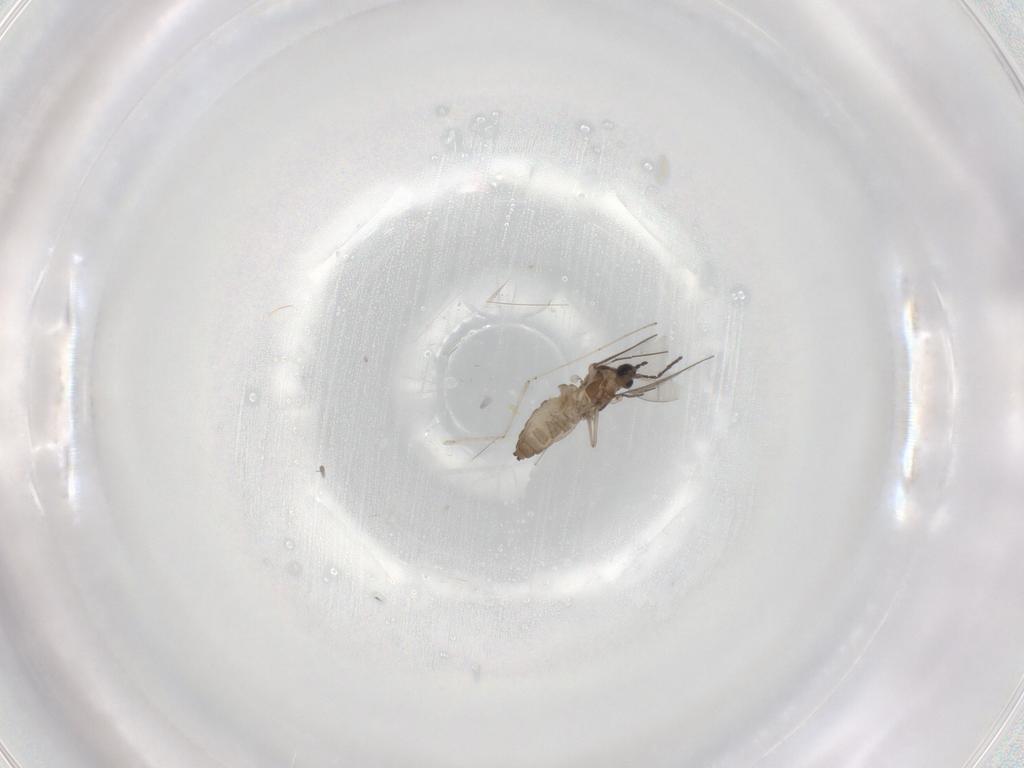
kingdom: Animalia
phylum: Arthropoda
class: Insecta
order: Diptera
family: Cecidomyiidae
